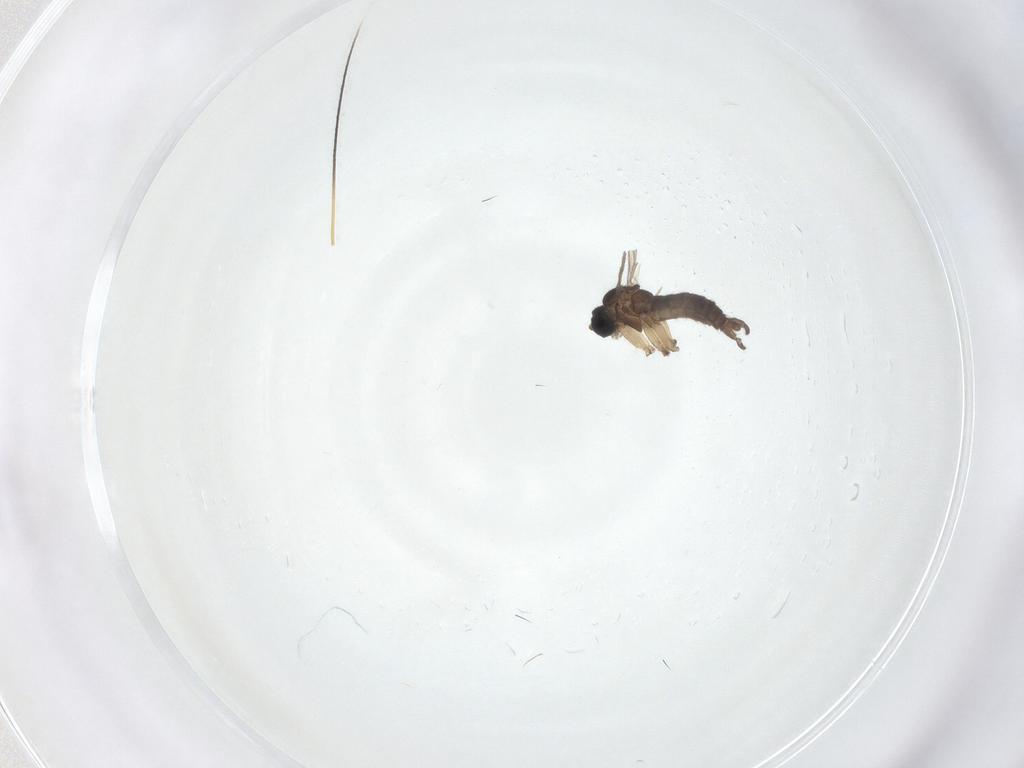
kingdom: Animalia
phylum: Arthropoda
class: Insecta
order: Diptera
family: Sciaridae
